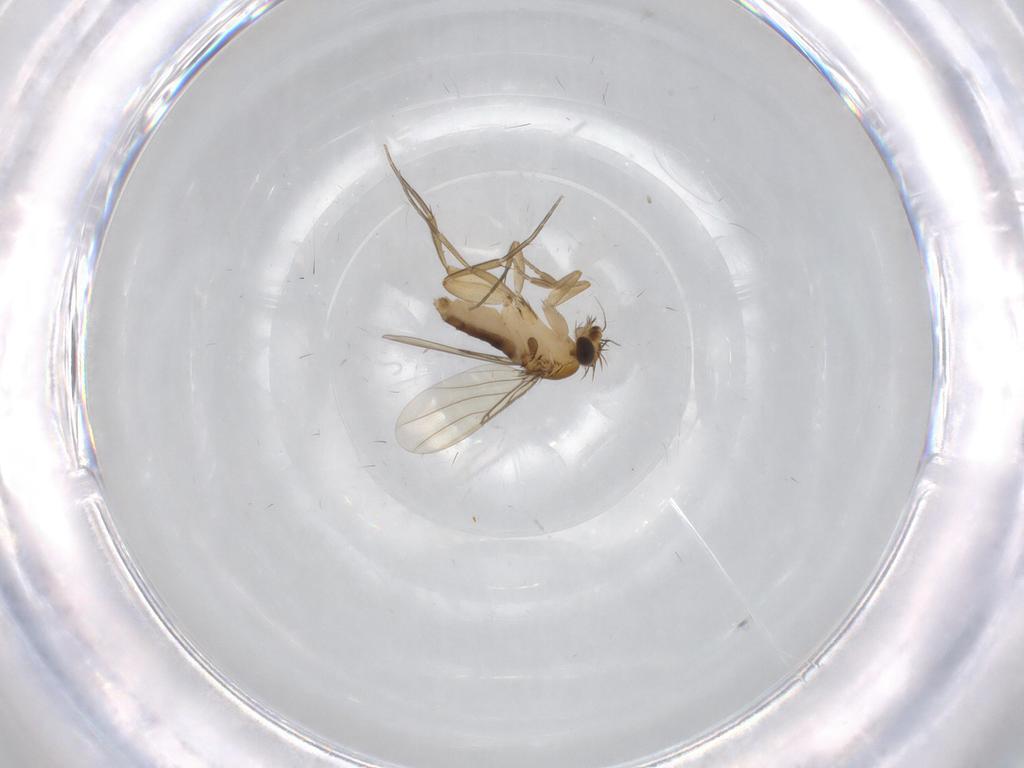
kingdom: Animalia
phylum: Arthropoda
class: Insecta
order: Diptera
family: Phoridae
